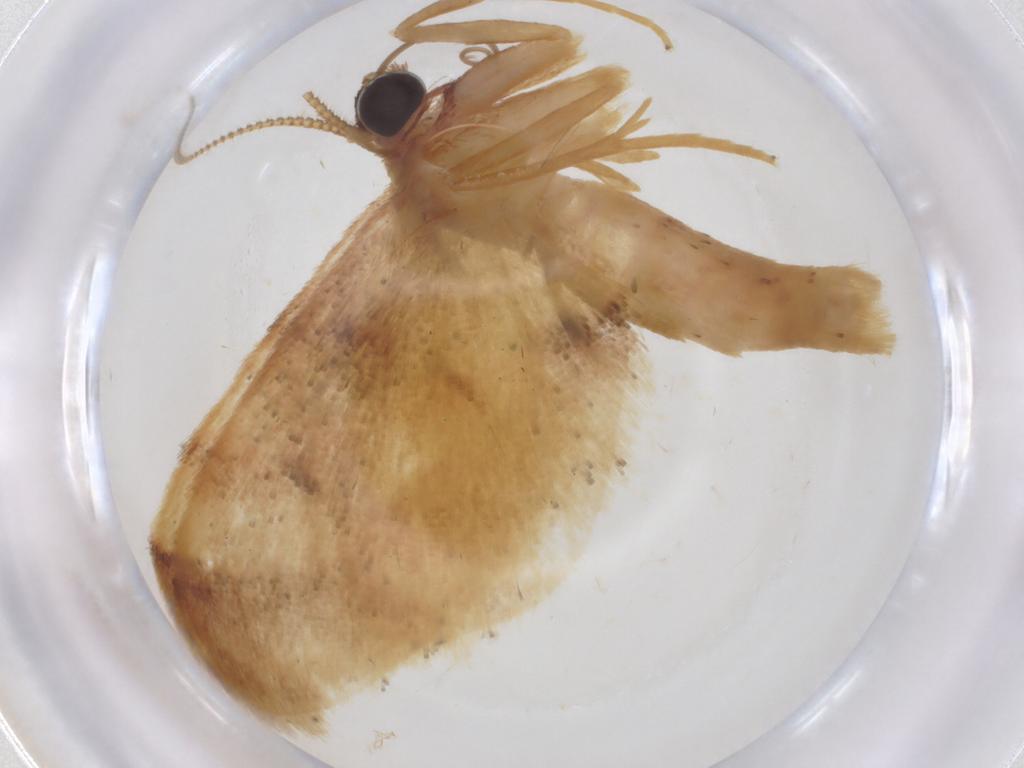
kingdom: Animalia
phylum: Arthropoda
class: Insecta
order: Lepidoptera
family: Geometridae
